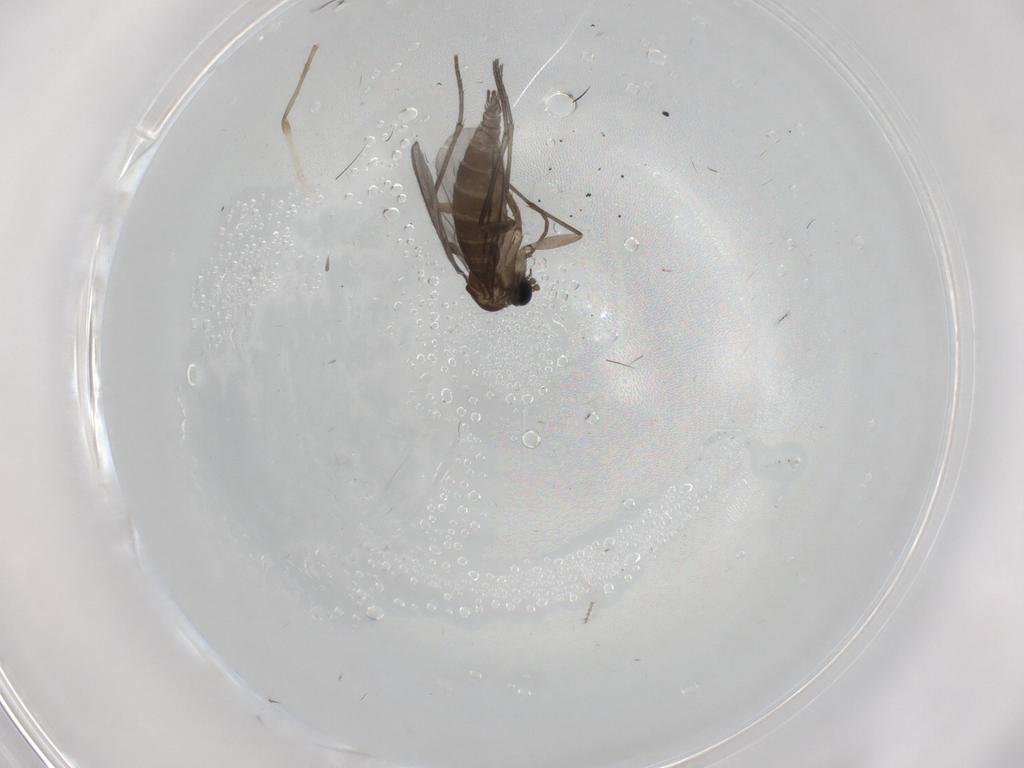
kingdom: Animalia
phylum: Arthropoda
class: Insecta
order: Diptera
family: Sciaridae
